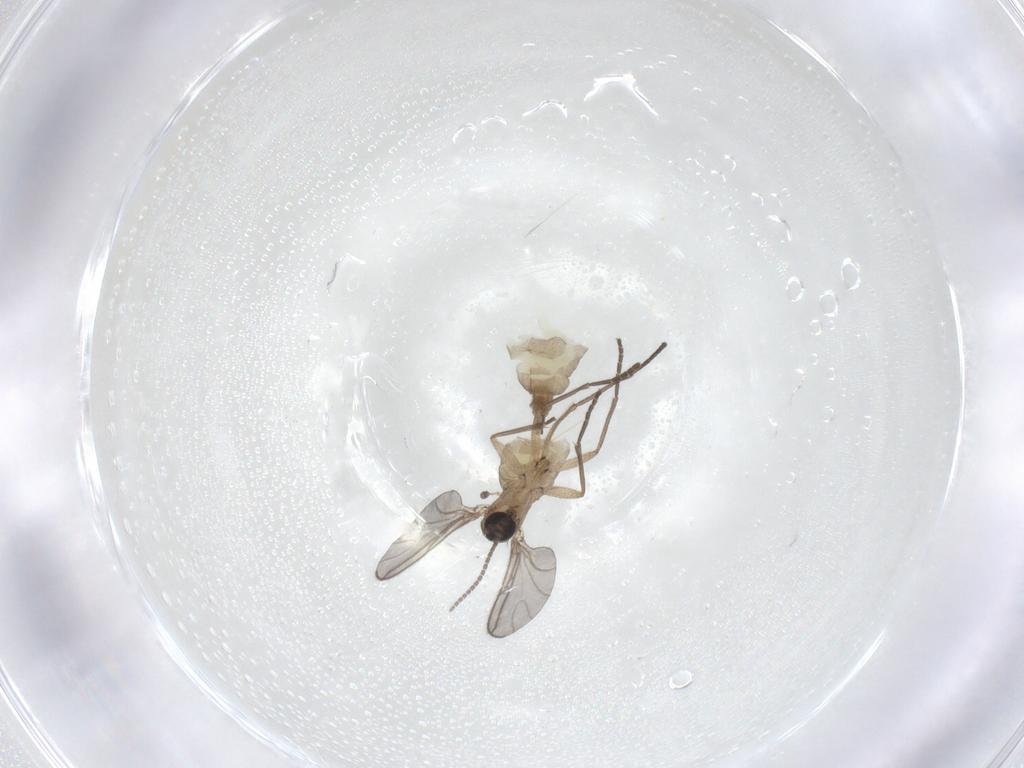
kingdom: Animalia
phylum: Arthropoda
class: Insecta
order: Diptera
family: Sciaridae
